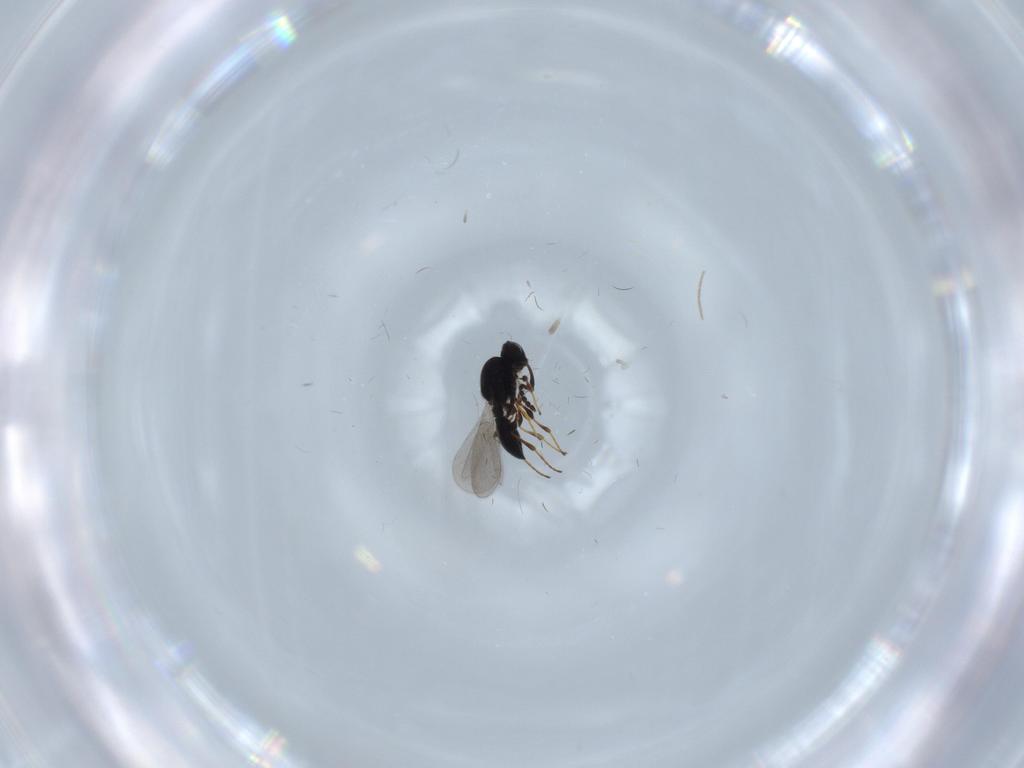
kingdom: Animalia
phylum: Arthropoda
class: Insecta
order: Hymenoptera
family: Platygastridae
